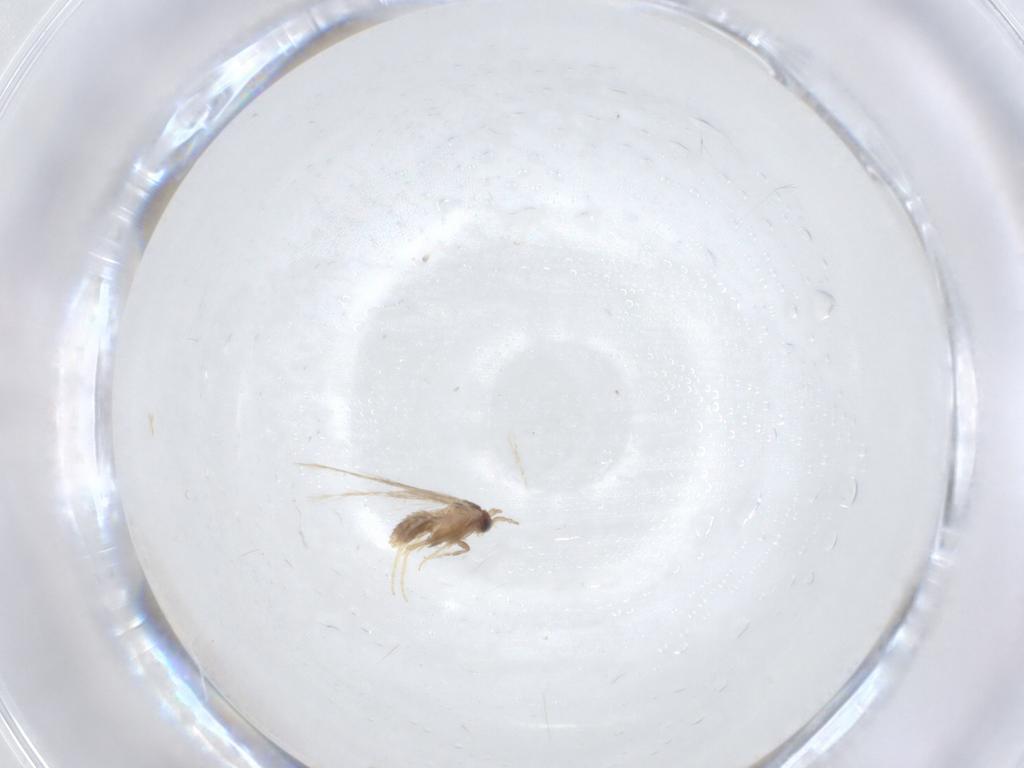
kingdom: Animalia
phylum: Arthropoda
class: Insecta
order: Lepidoptera
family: Nepticulidae
